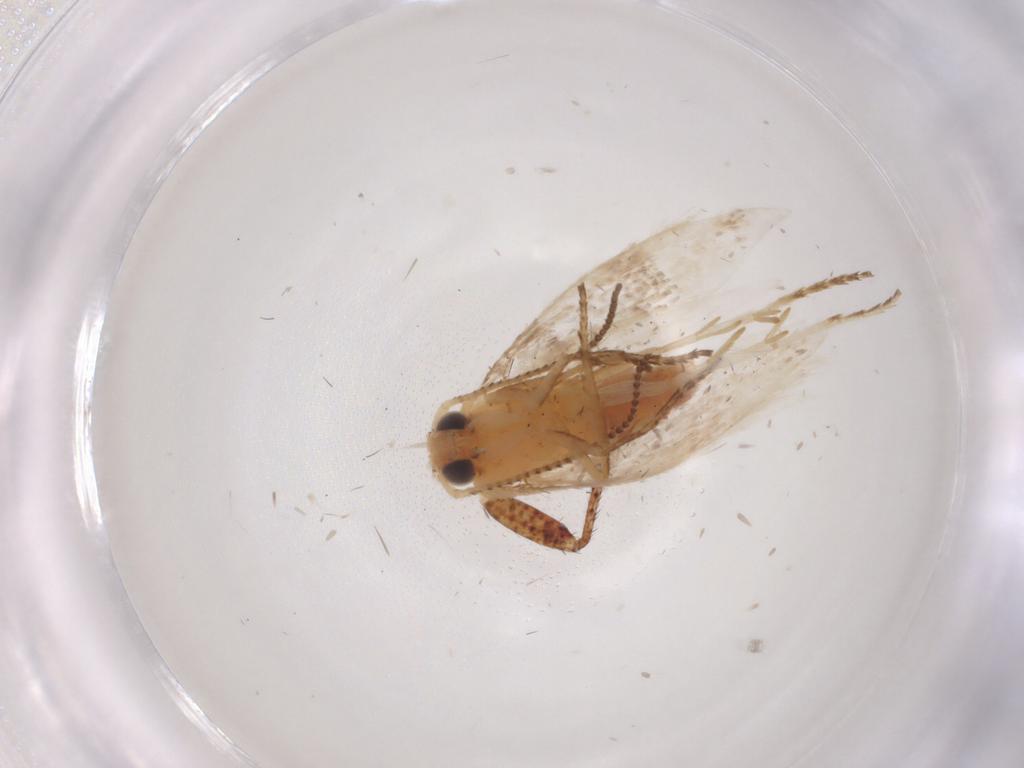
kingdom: Animalia
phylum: Arthropoda
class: Insecta
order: Lepidoptera
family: Argyresthiidae
